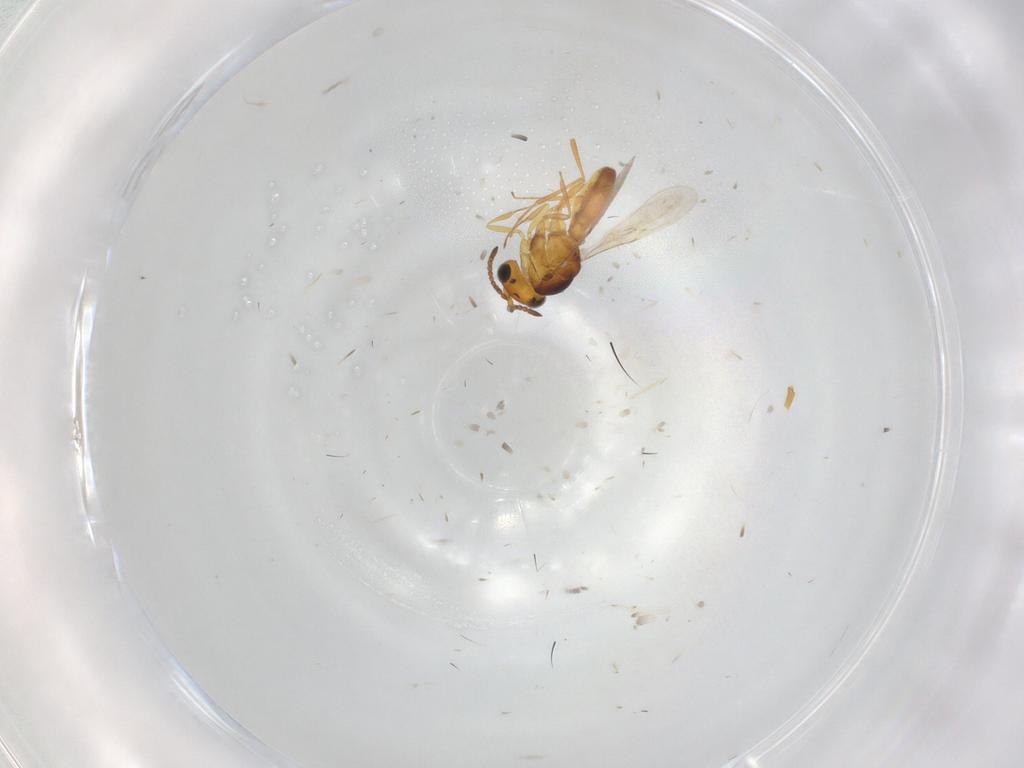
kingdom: Animalia
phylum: Arthropoda
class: Insecta
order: Hymenoptera
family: Scelionidae
